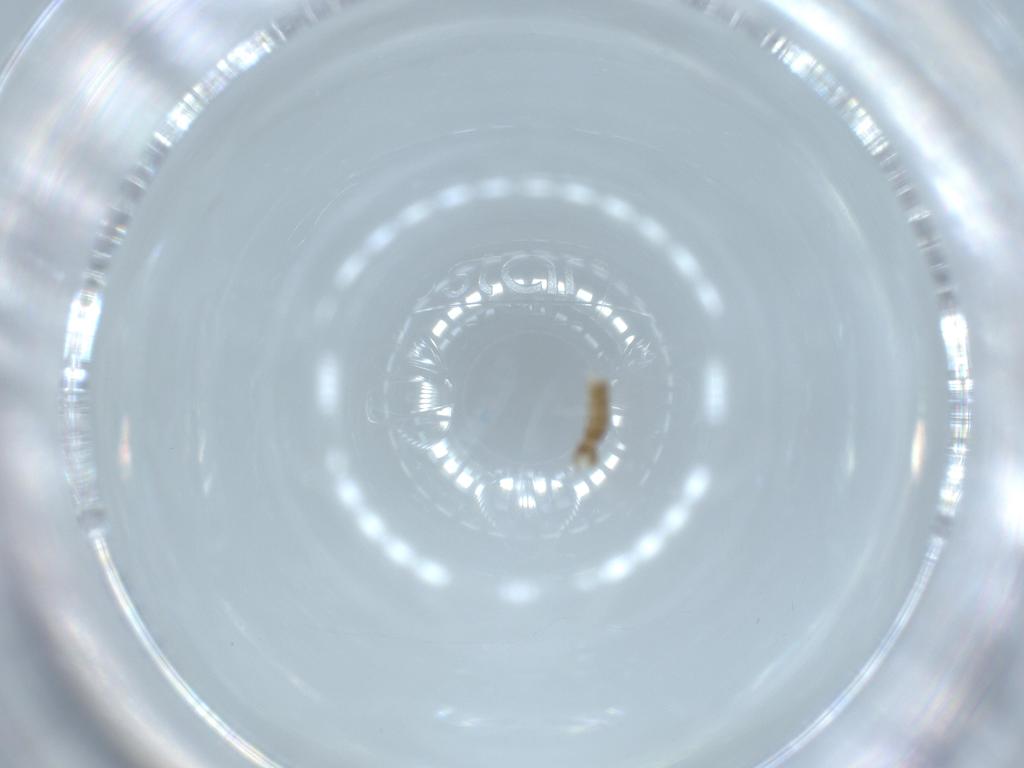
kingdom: Animalia
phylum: Arthropoda
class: Insecta
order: Diptera
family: Psychodidae
